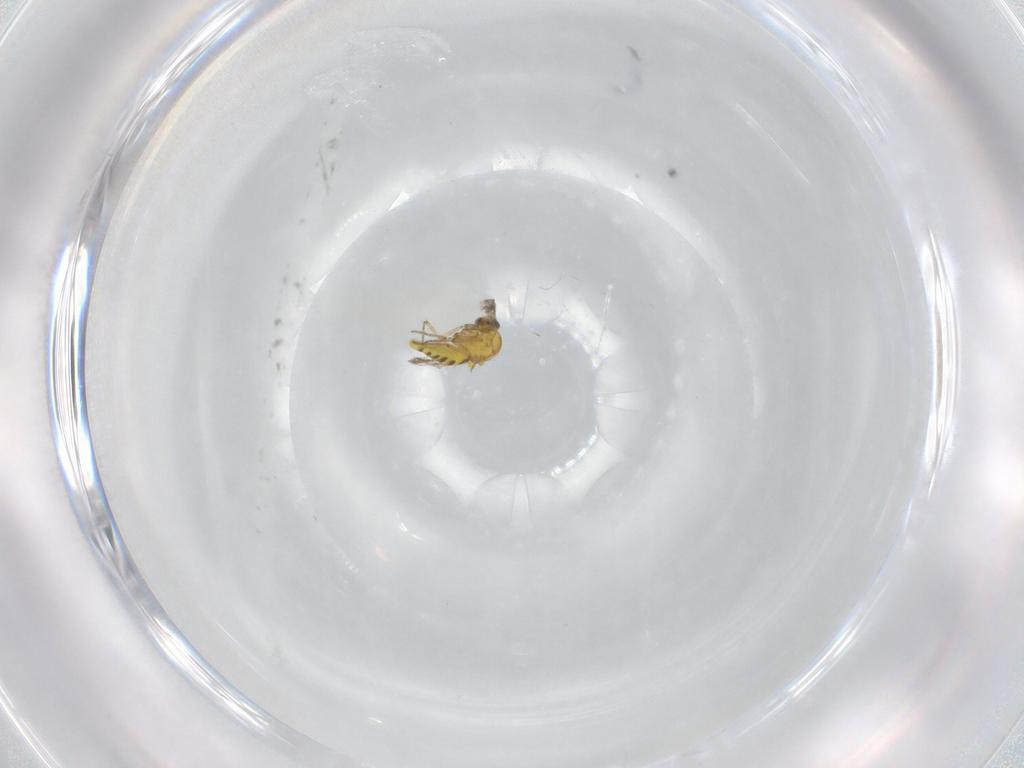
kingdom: Animalia
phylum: Arthropoda
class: Insecta
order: Diptera
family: Ceratopogonidae
